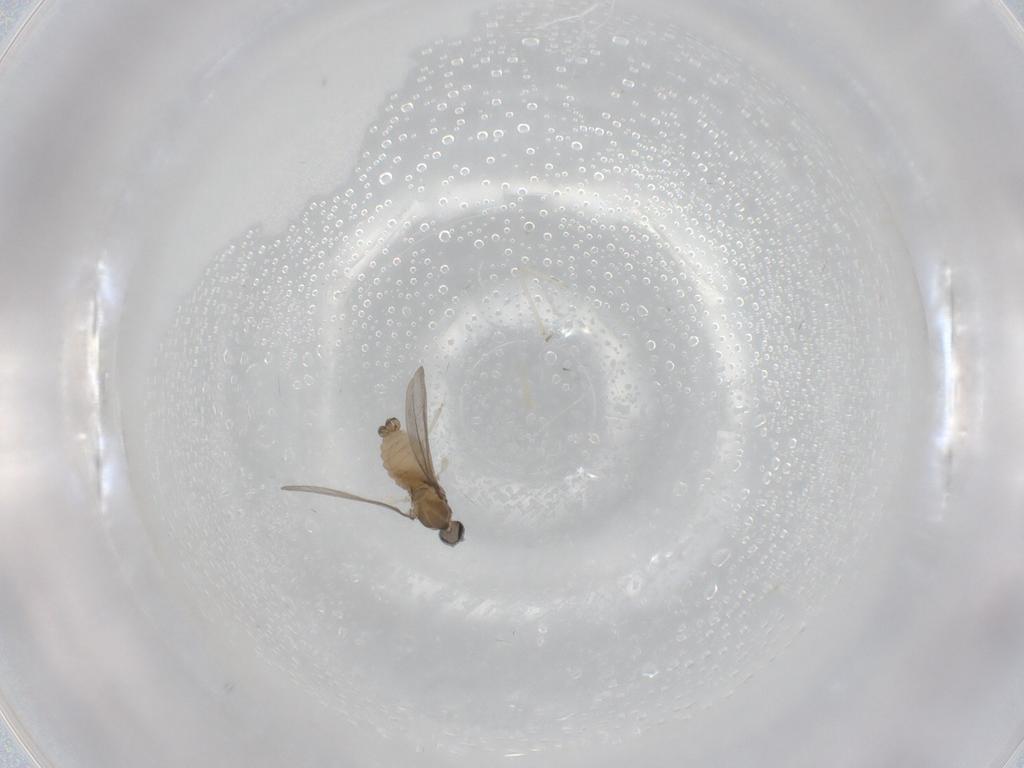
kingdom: Animalia
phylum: Arthropoda
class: Insecta
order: Diptera
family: Cecidomyiidae
